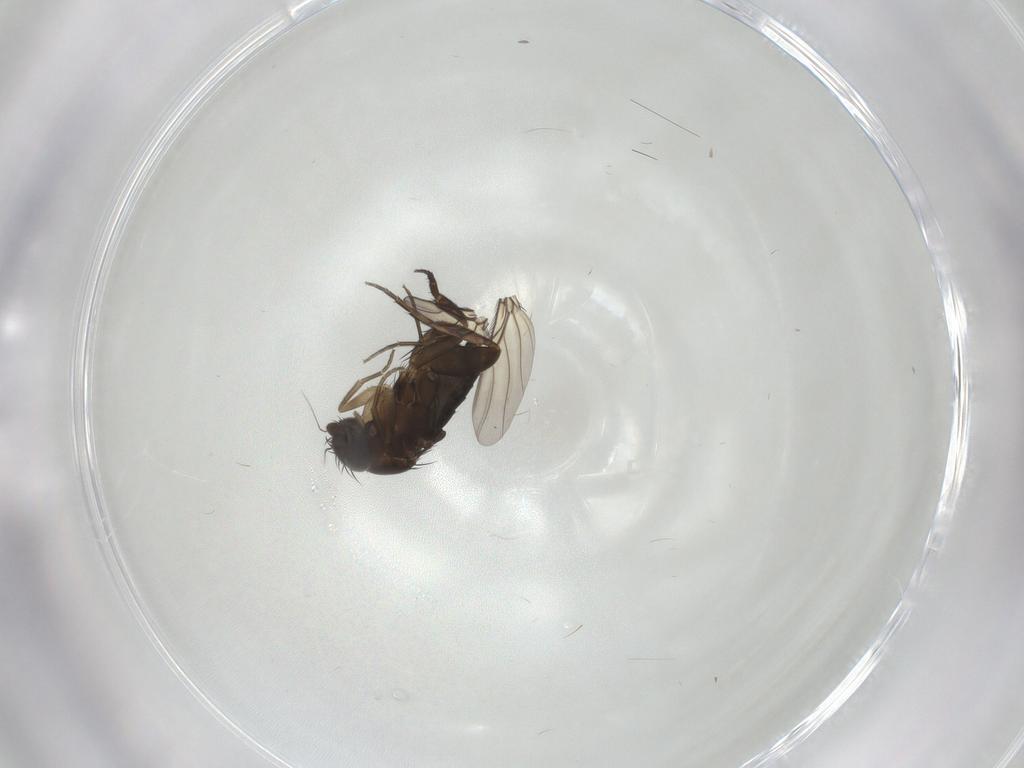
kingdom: Animalia
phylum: Arthropoda
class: Insecta
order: Diptera
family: Phoridae
